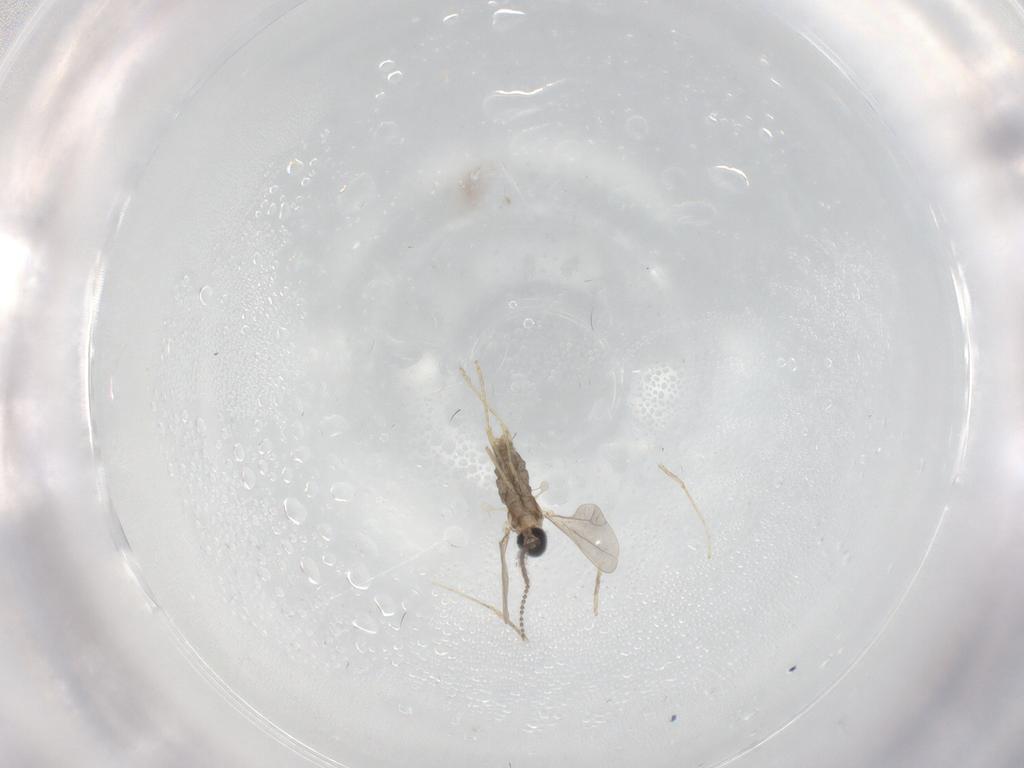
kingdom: Animalia
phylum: Arthropoda
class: Insecta
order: Diptera
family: Cecidomyiidae
